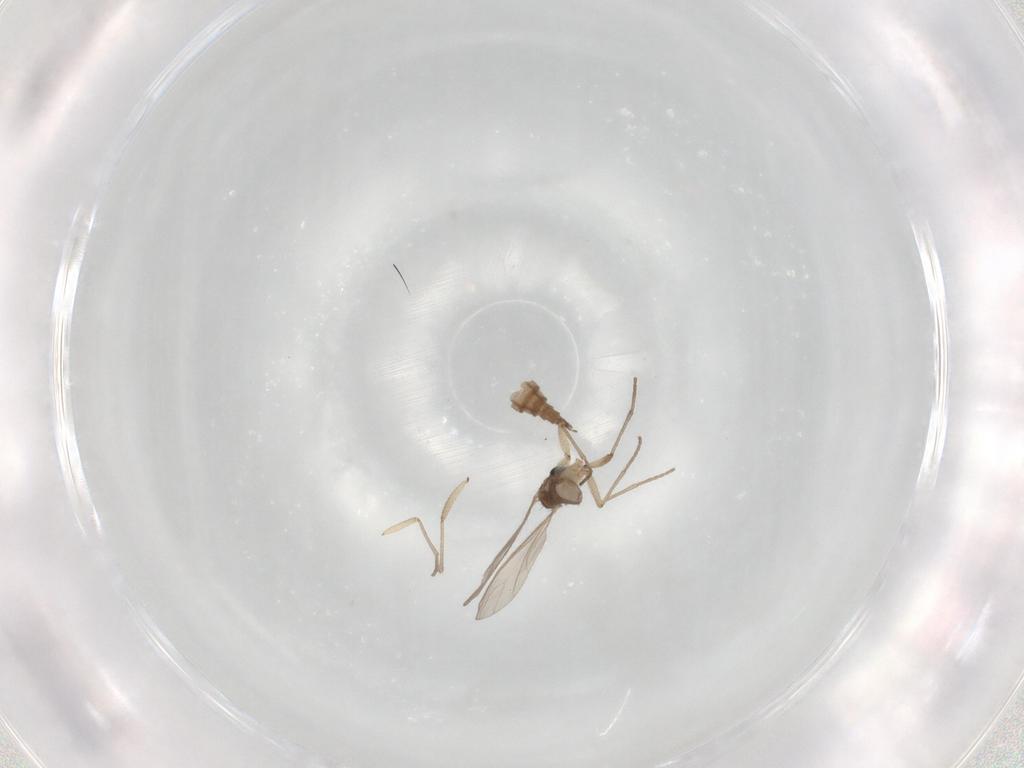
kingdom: Animalia
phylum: Arthropoda
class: Insecta
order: Diptera
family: Sciaridae
